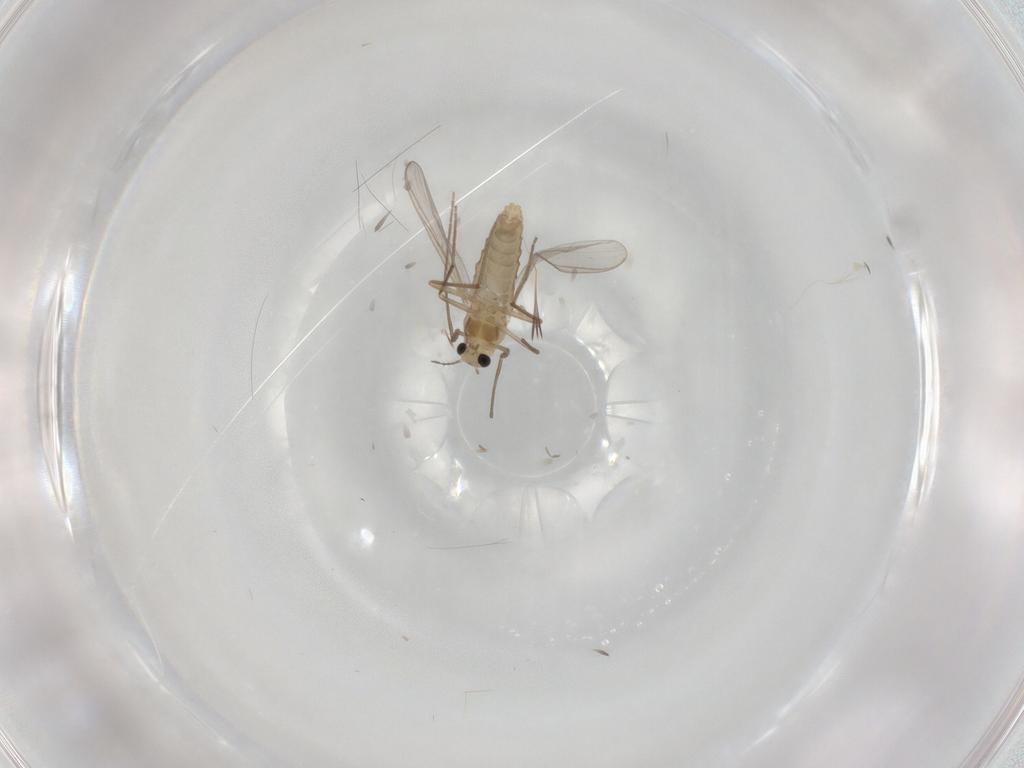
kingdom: Animalia
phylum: Arthropoda
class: Insecta
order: Diptera
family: Chironomidae
